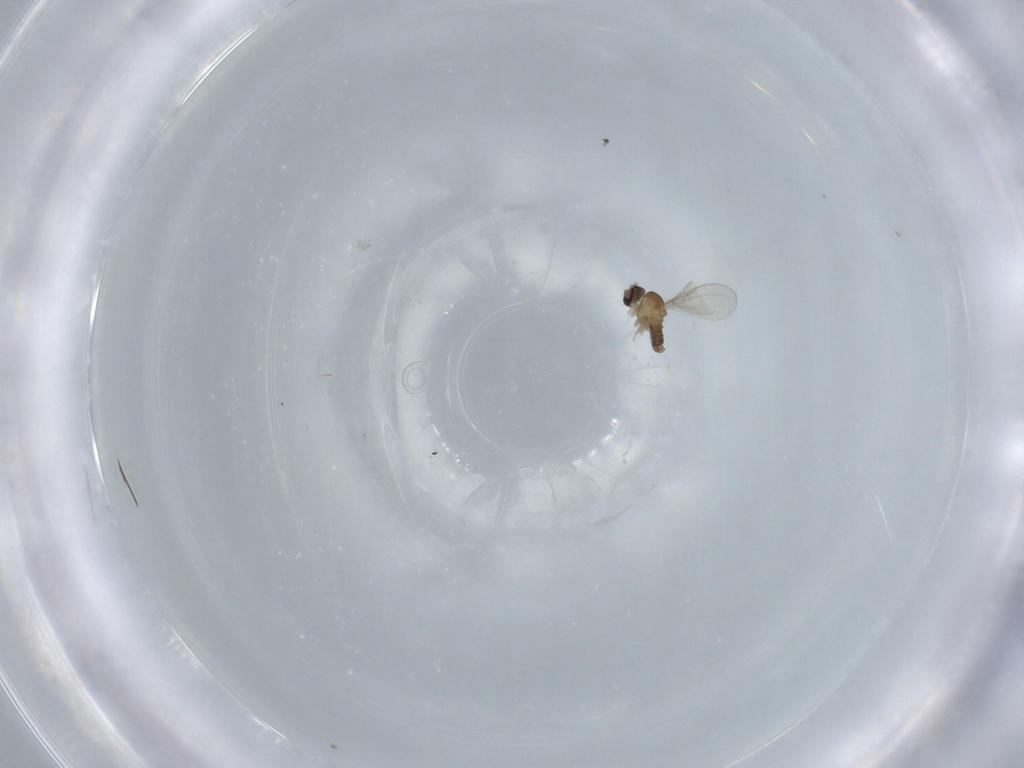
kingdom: Animalia
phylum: Arthropoda
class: Insecta
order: Diptera
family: Cecidomyiidae
